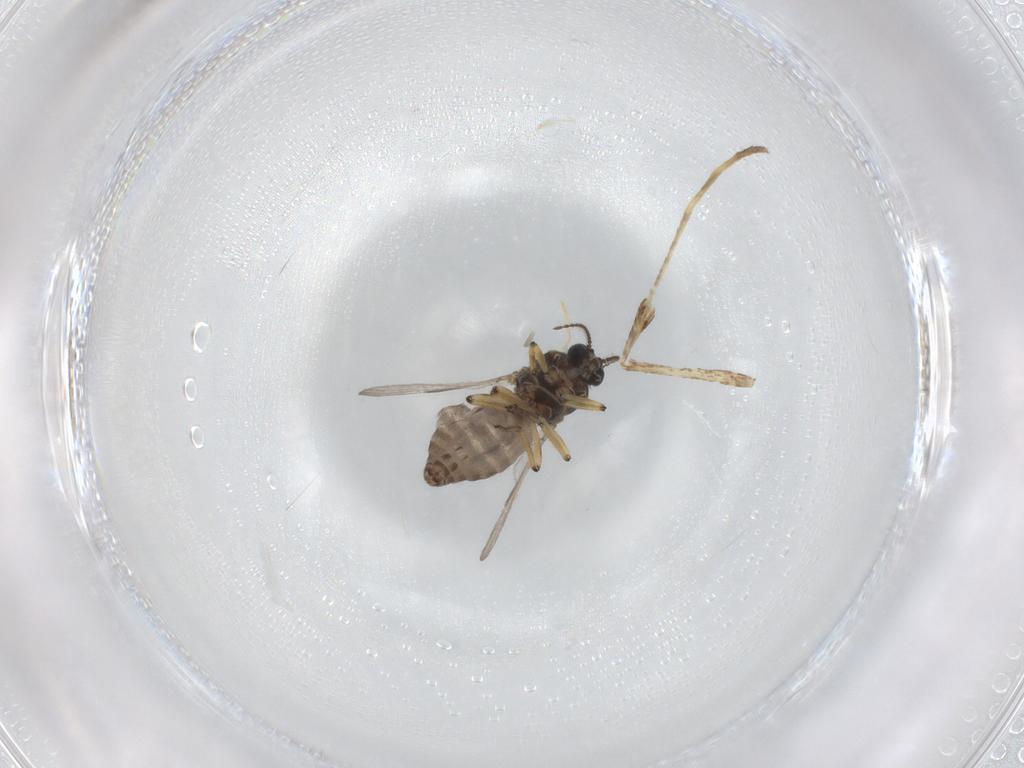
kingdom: Animalia
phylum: Arthropoda
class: Insecta
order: Diptera
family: Ceratopogonidae
